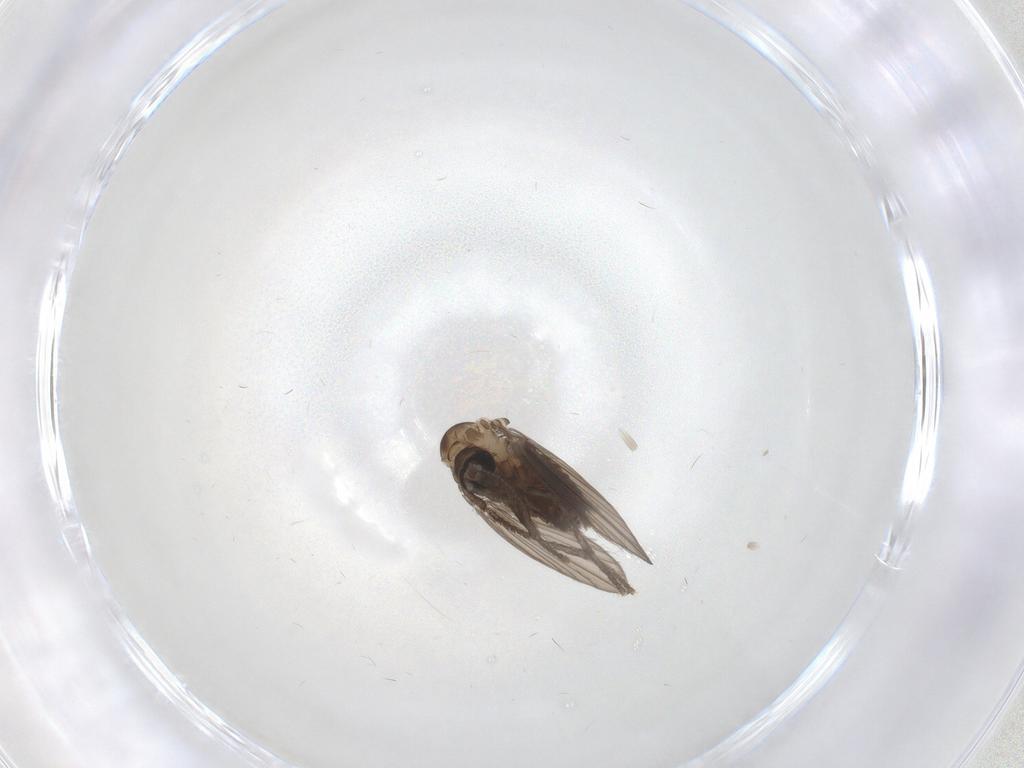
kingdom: Animalia
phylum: Arthropoda
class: Insecta
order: Diptera
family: Psychodidae
